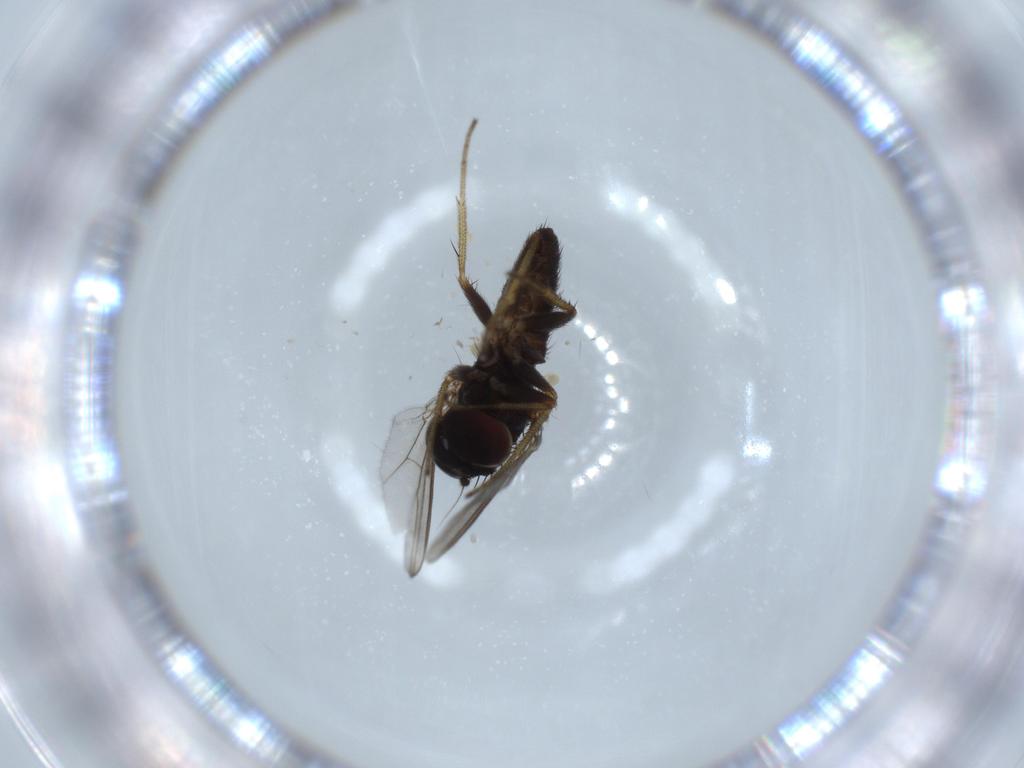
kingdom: Animalia
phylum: Arthropoda
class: Insecta
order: Diptera
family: Dolichopodidae
